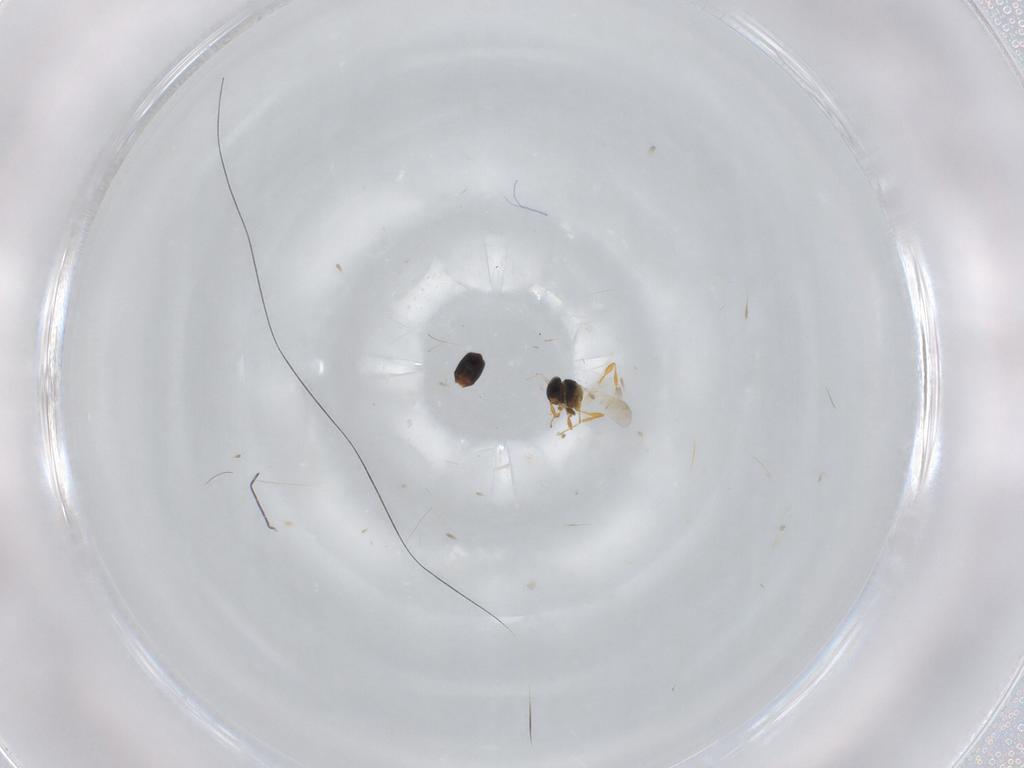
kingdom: Animalia
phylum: Arthropoda
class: Insecta
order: Hymenoptera
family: Platygastridae
